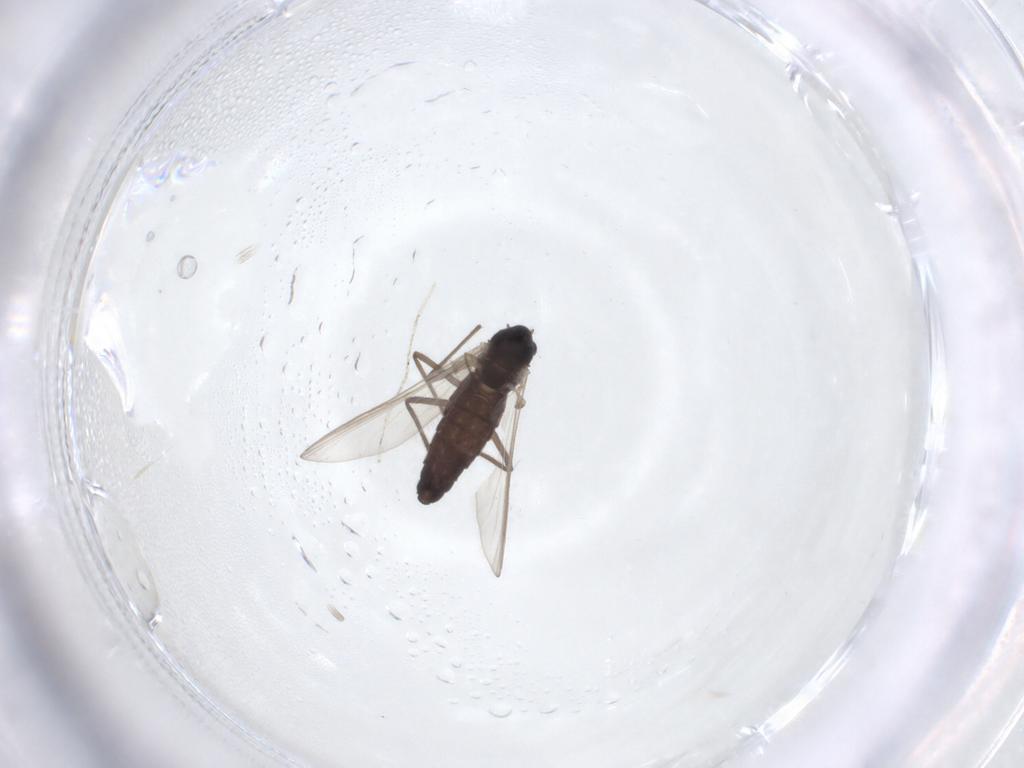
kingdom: Animalia
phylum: Arthropoda
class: Insecta
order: Diptera
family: Chironomidae
